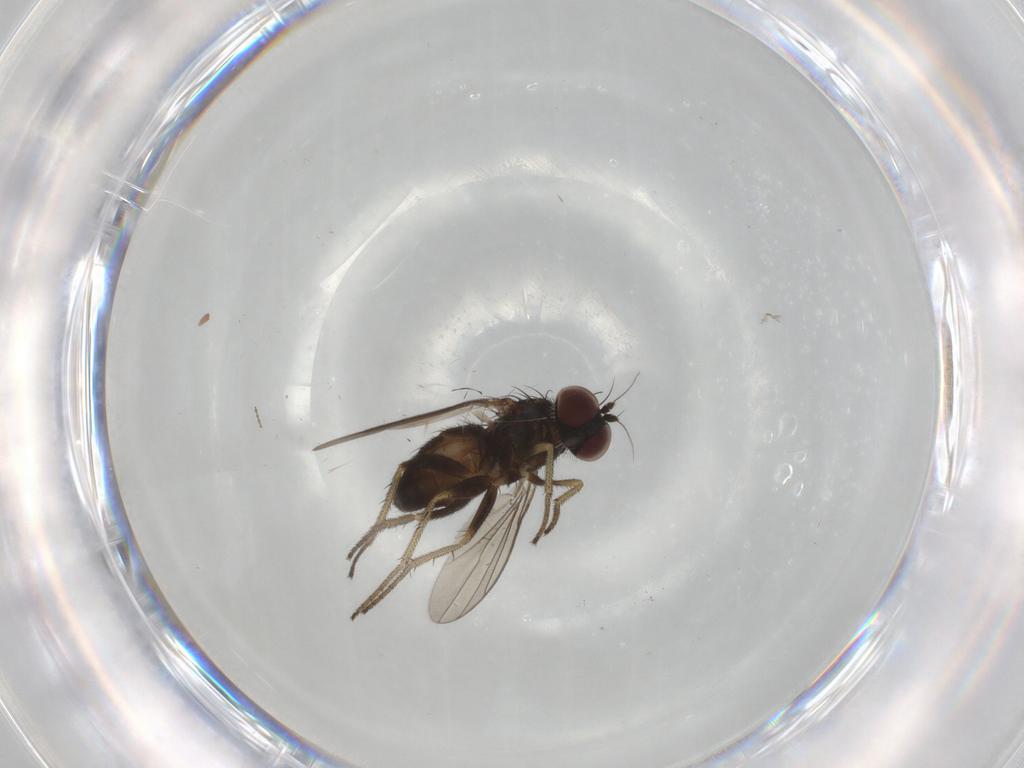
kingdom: Animalia
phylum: Arthropoda
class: Insecta
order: Diptera
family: Dolichopodidae
